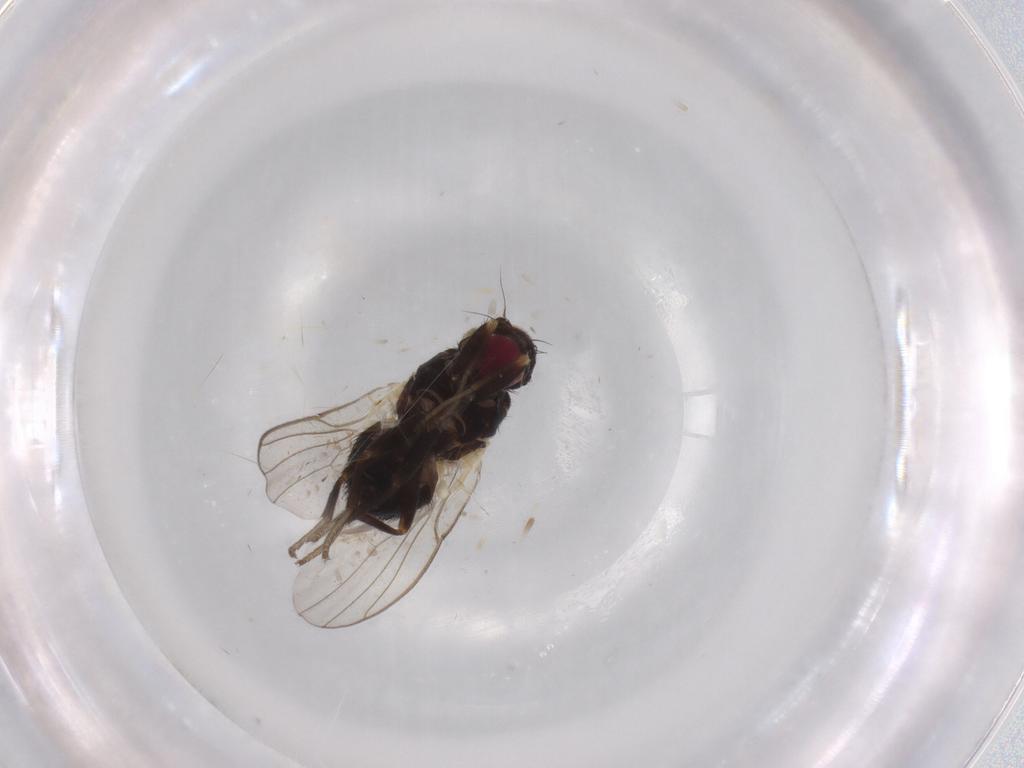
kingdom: Animalia
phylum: Arthropoda
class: Insecta
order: Diptera
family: Agromyzidae
